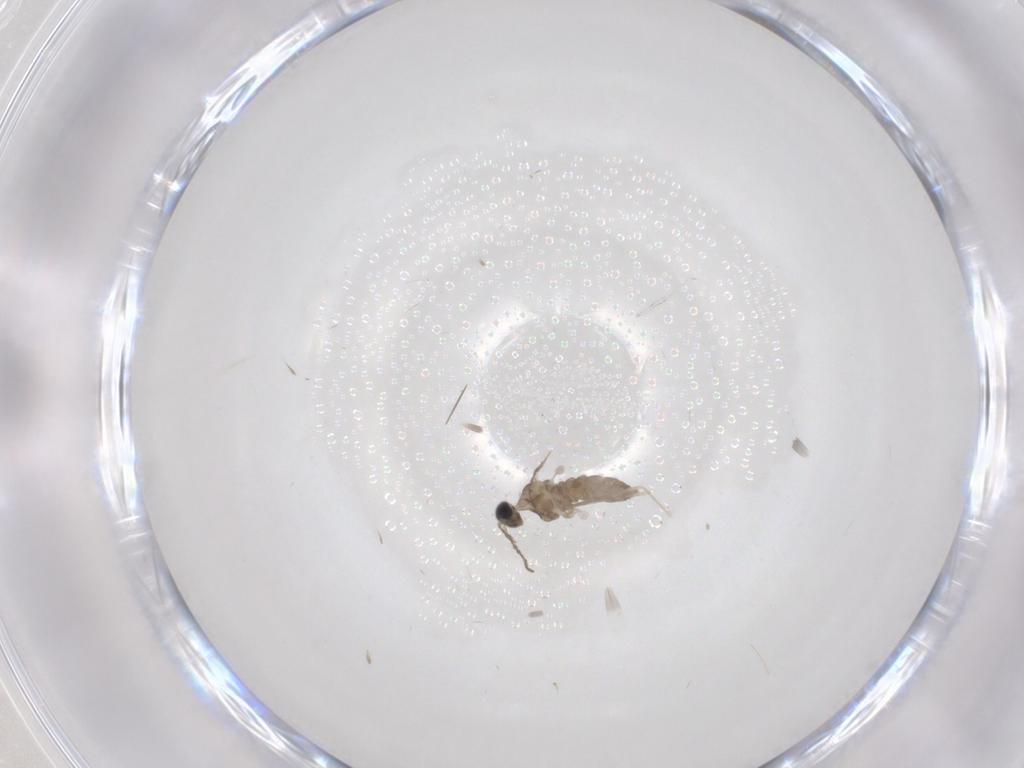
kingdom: Animalia
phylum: Arthropoda
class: Insecta
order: Diptera
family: Cecidomyiidae
